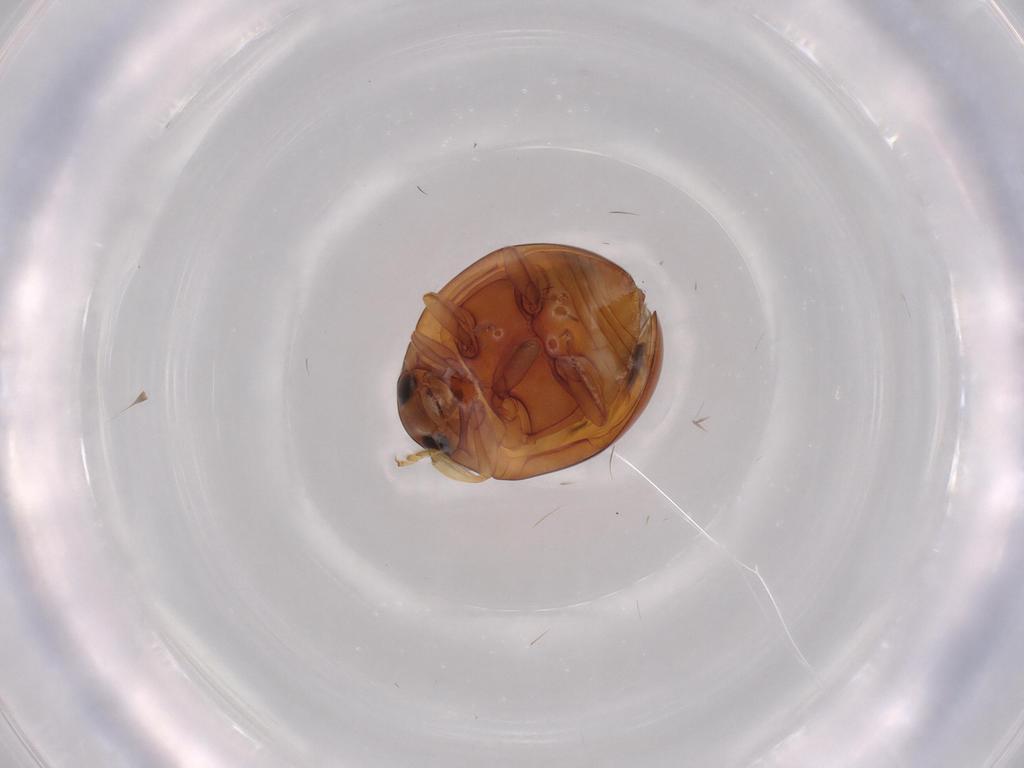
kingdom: Animalia
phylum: Arthropoda
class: Insecta
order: Coleoptera
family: Coccinellidae
